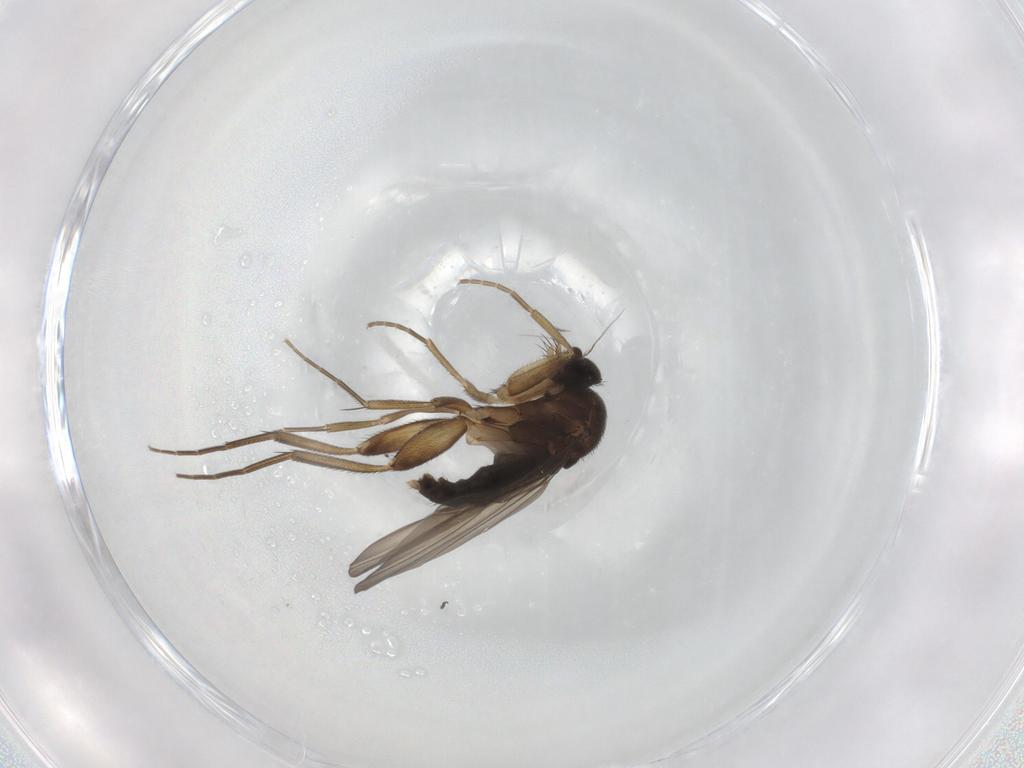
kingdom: Animalia
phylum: Arthropoda
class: Insecta
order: Diptera
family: Phoridae
